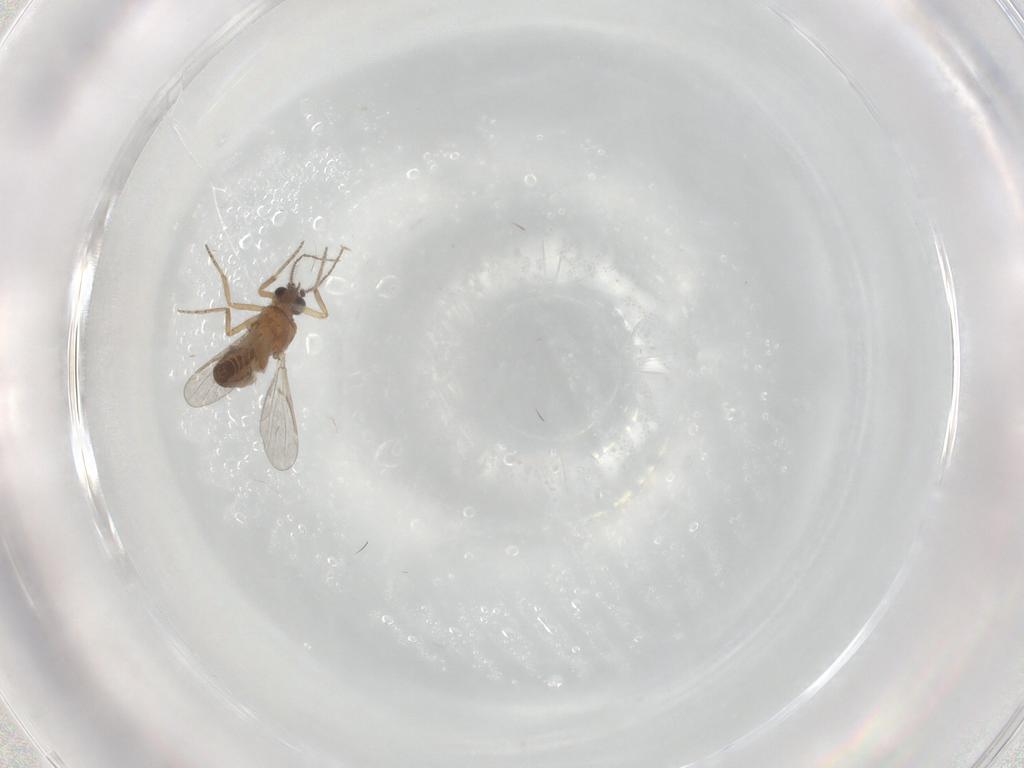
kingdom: Animalia
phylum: Arthropoda
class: Insecta
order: Diptera
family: Ceratopogonidae
